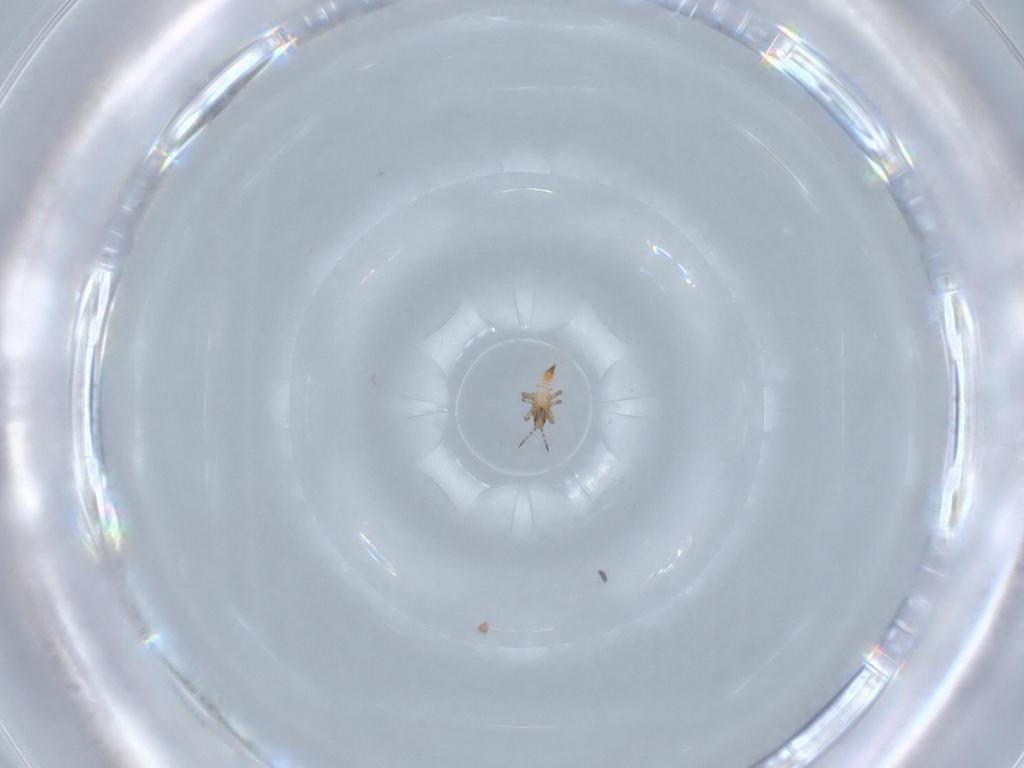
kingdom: Animalia
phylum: Arthropoda
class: Insecta
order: Thysanoptera
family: Phlaeothripidae
